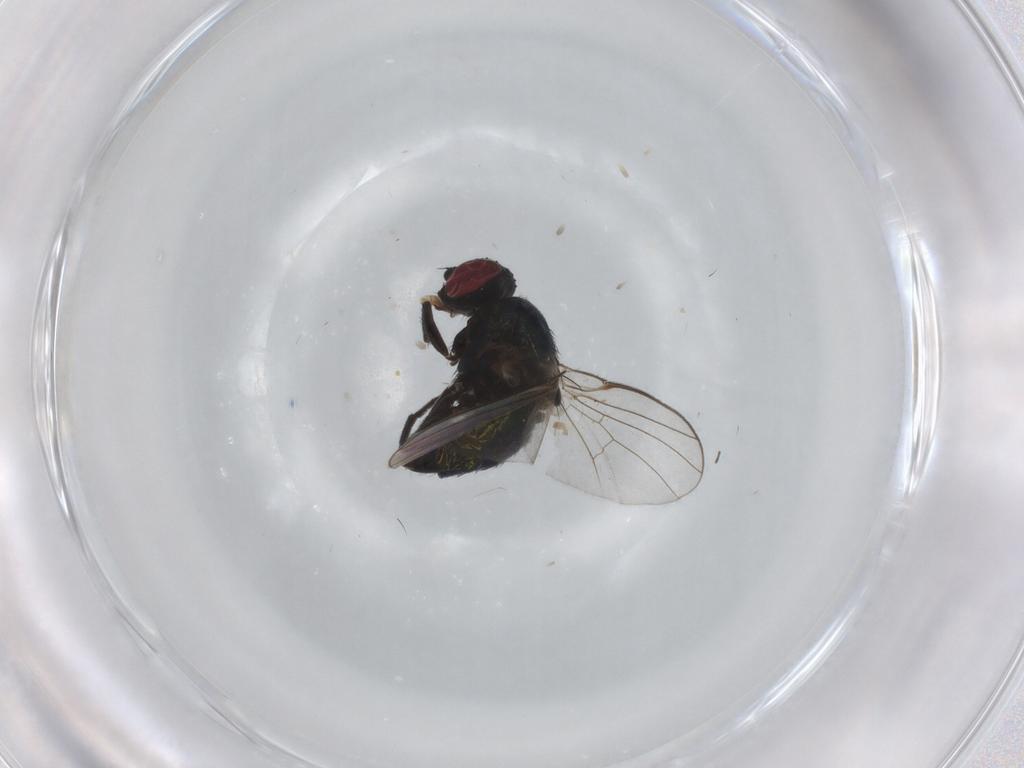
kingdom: Animalia
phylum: Arthropoda
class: Insecta
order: Diptera
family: Agromyzidae
